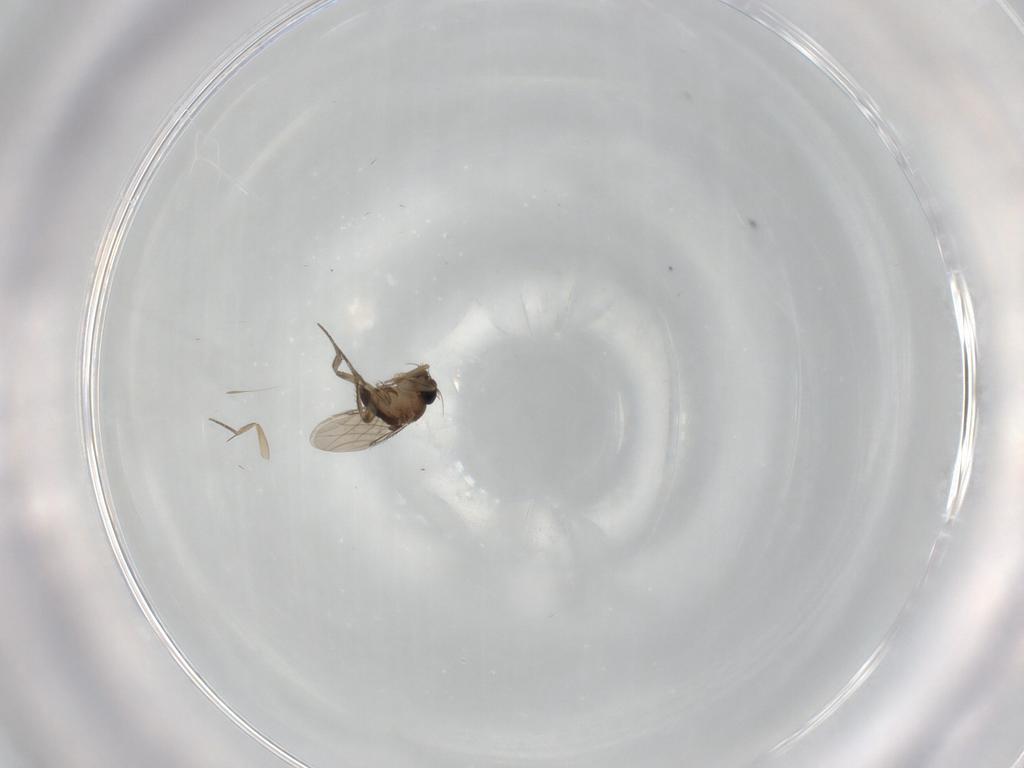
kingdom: Animalia
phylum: Arthropoda
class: Insecta
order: Diptera
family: Phoridae
